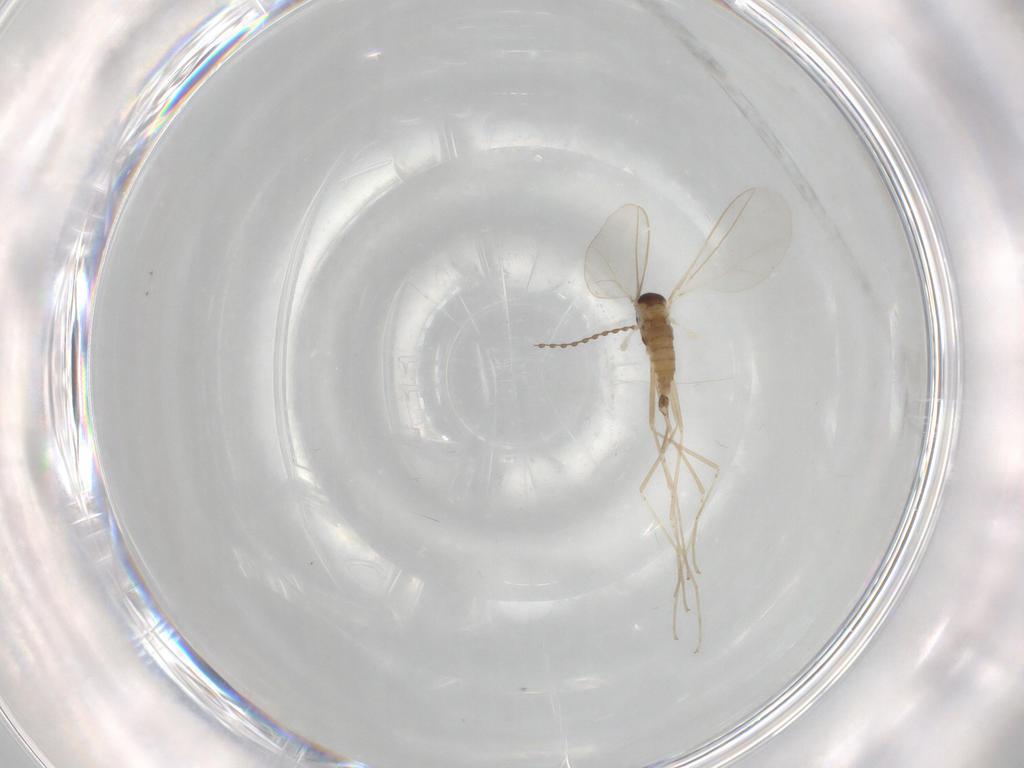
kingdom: Animalia
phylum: Arthropoda
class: Insecta
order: Diptera
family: Cecidomyiidae
